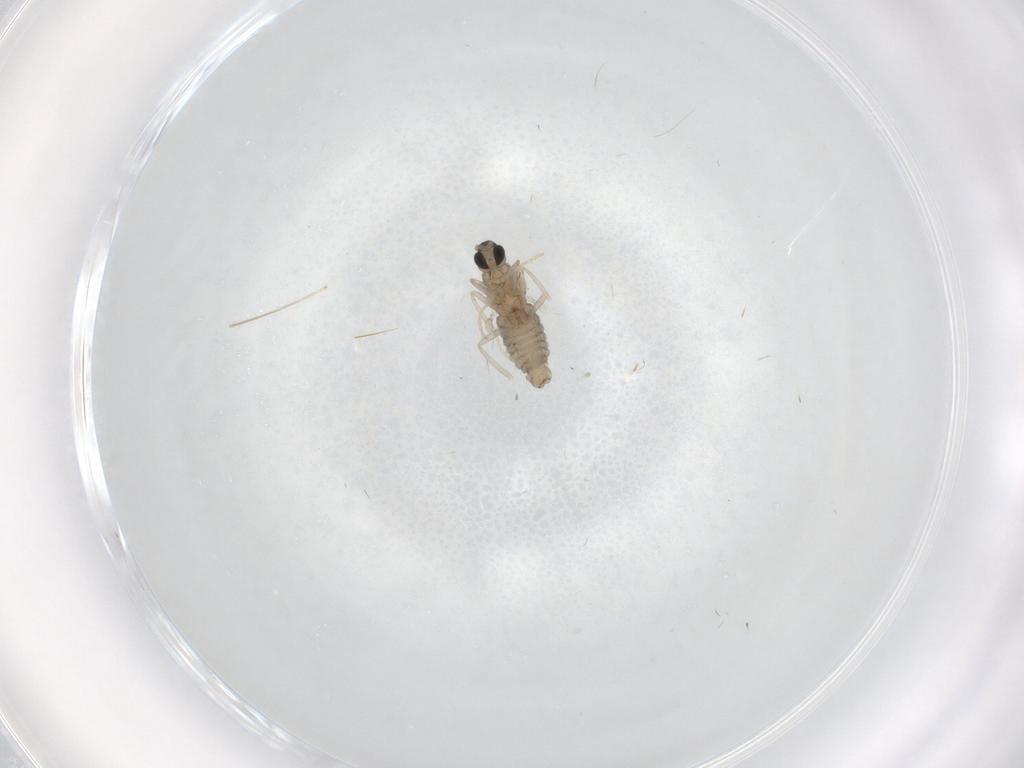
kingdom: Animalia
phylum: Arthropoda
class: Insecta
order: Diptera
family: Cecidomyiidae
